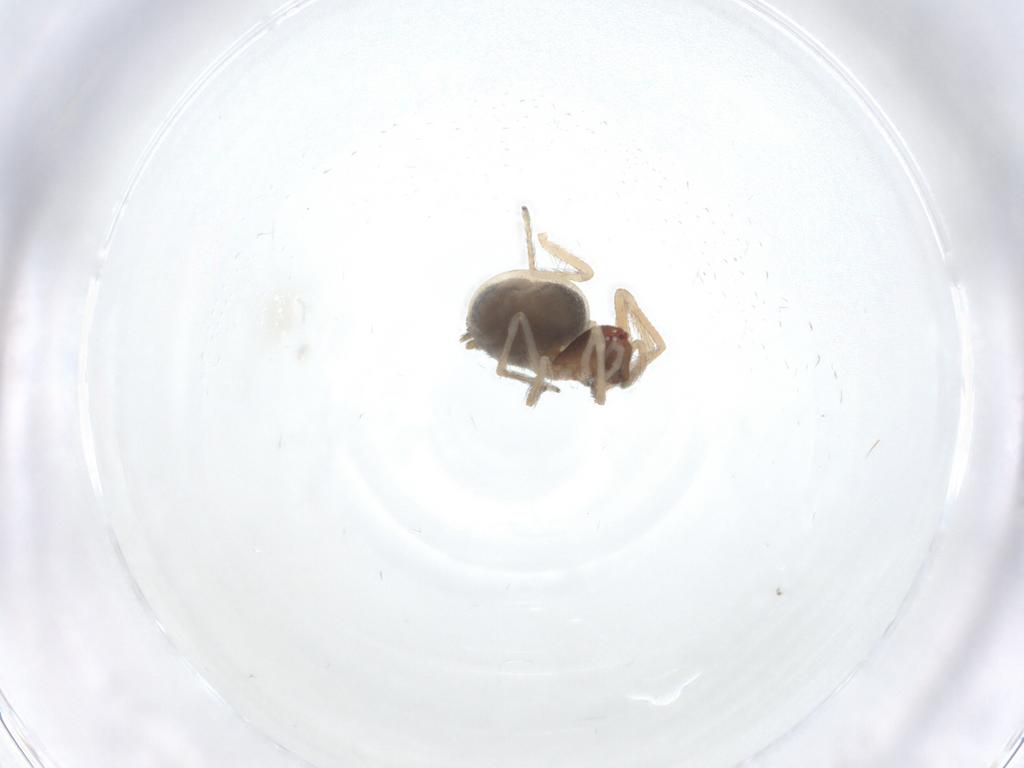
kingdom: Animalia
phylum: Arthropoda
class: Arachnida
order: Araneae
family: Dictynidae
